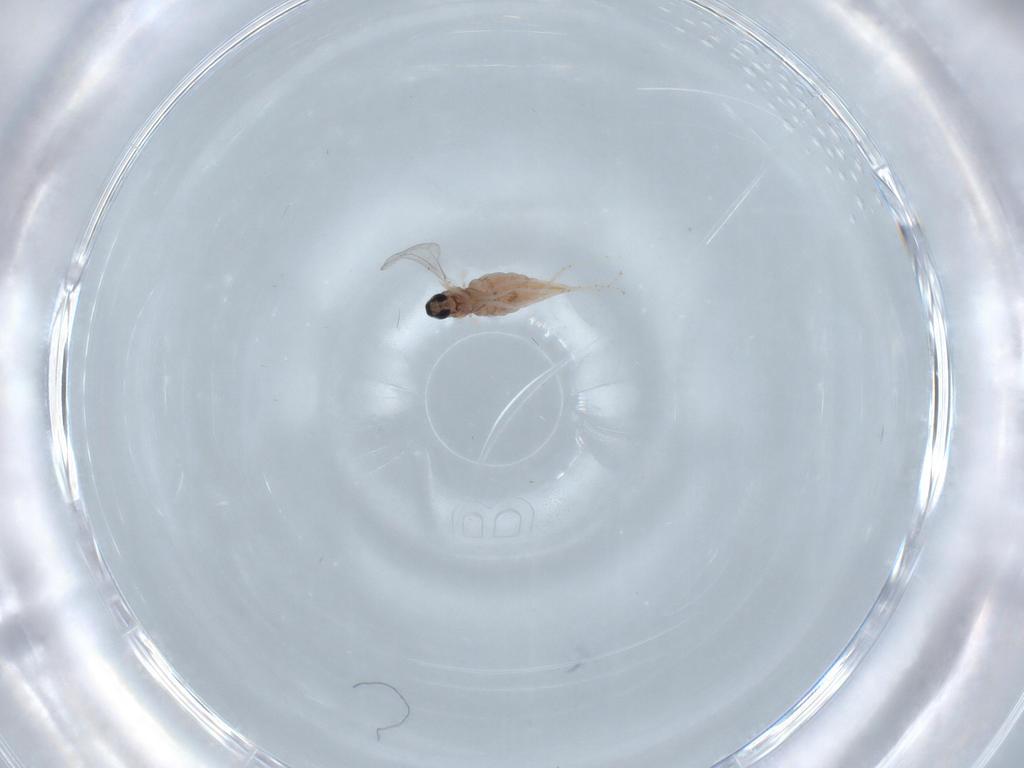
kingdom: Animalia
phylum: Arthropoda
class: Insecta
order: Diptera
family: Cecidomyiidae
